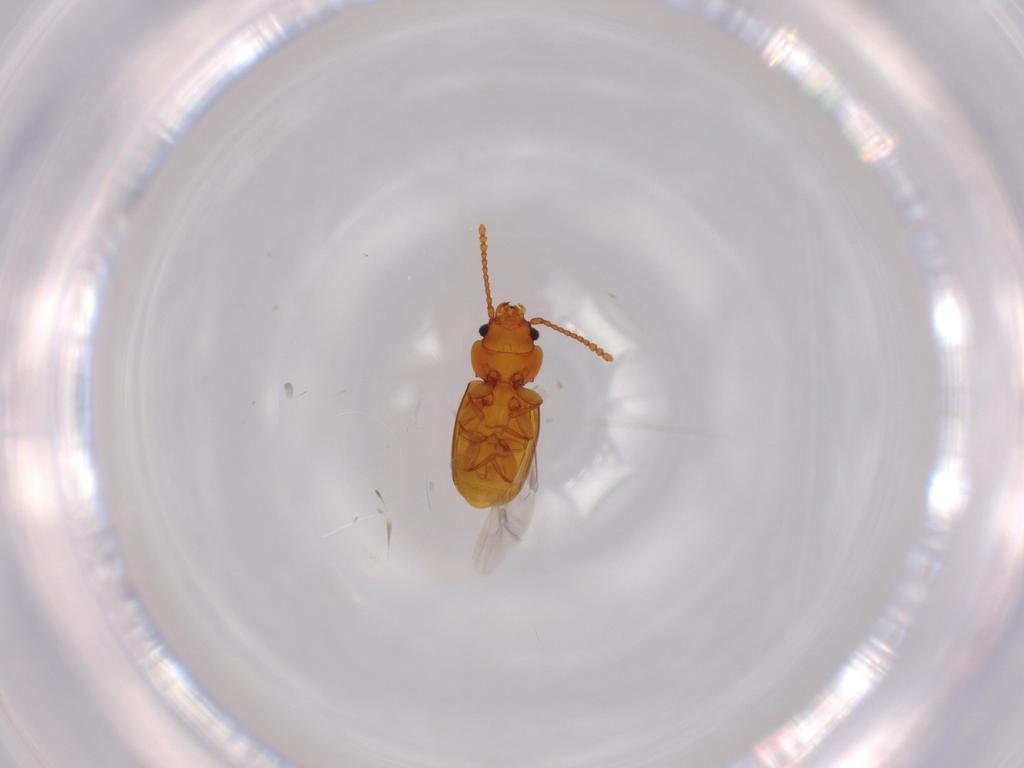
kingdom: Animalia
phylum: Arthropoda
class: Insecta
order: Coleoptera
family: Laemophloeidae
